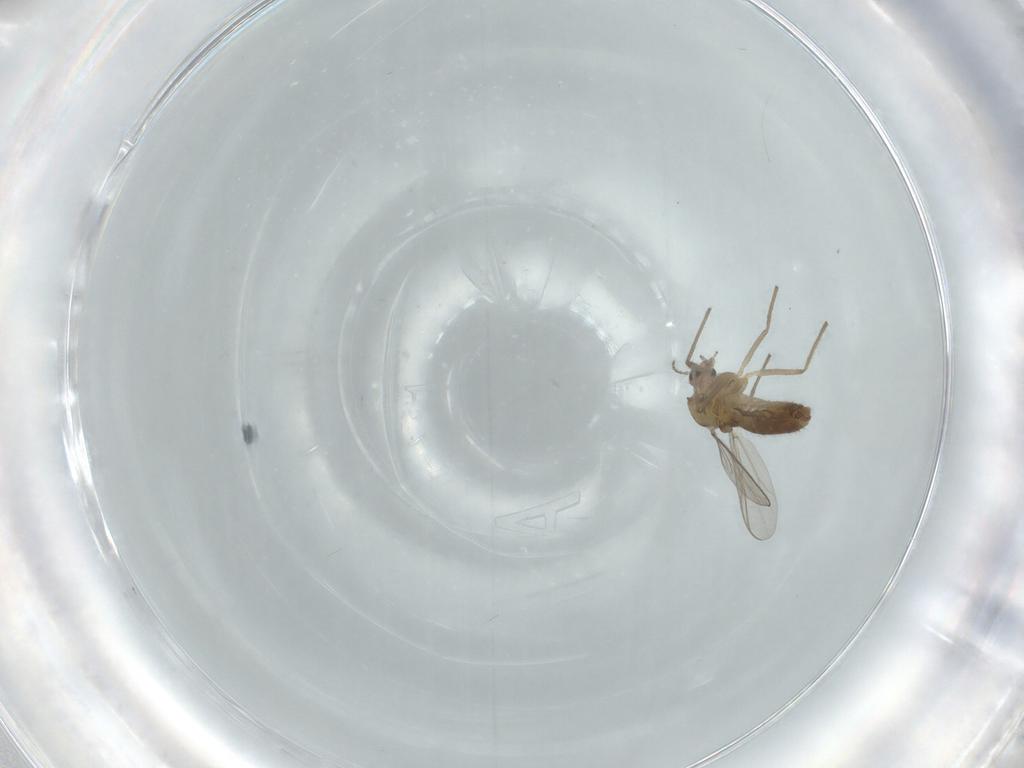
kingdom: Animalia
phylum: Arthropoda
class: Insecta
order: Diptera
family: Chironomidae
